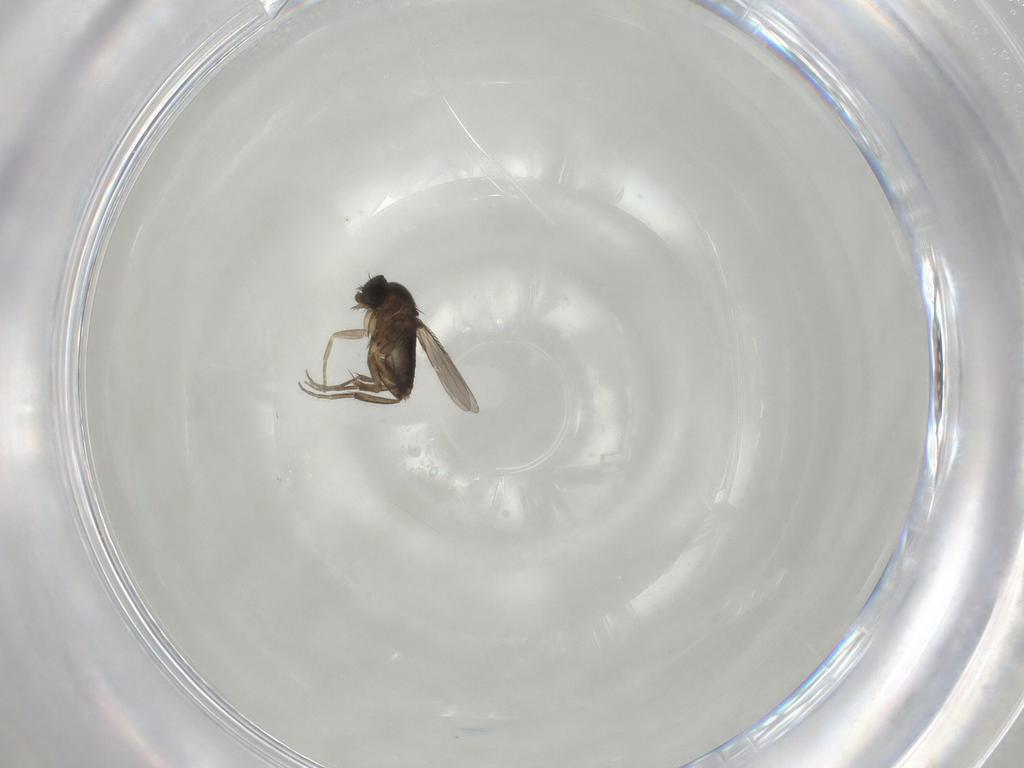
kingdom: Animalia
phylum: Arthropoda
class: Insecta
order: Diptera
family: Phoridae
